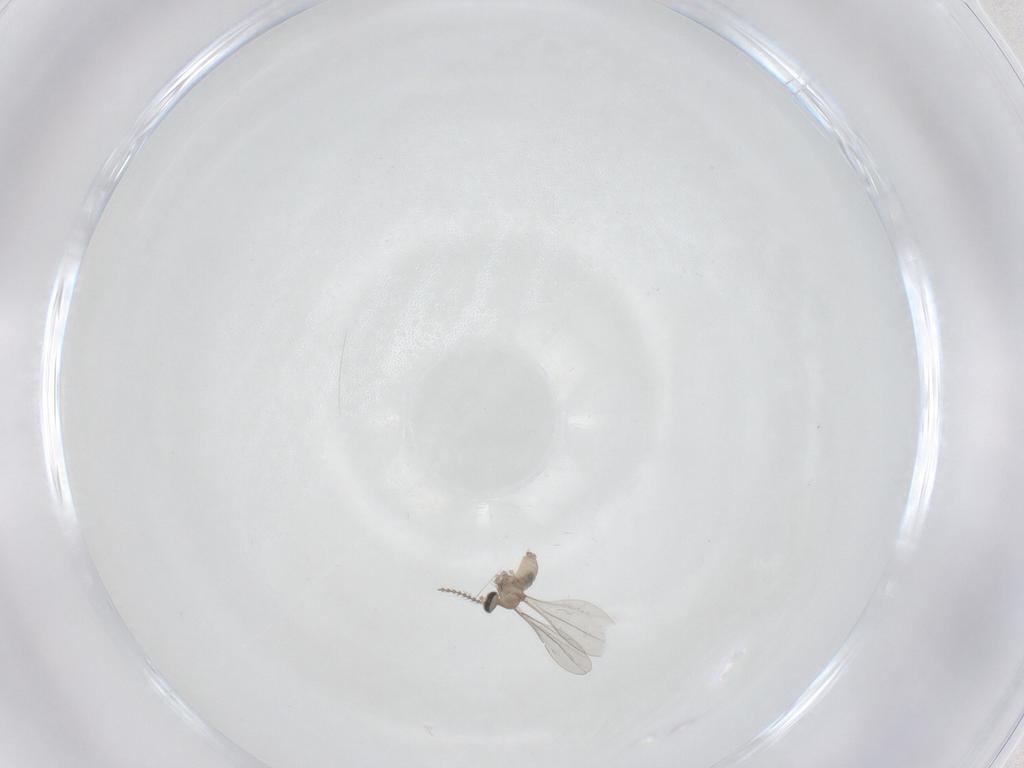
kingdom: Animalia
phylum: Arthropoda
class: Insecta
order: Diptera
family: Cecidomyiidae
